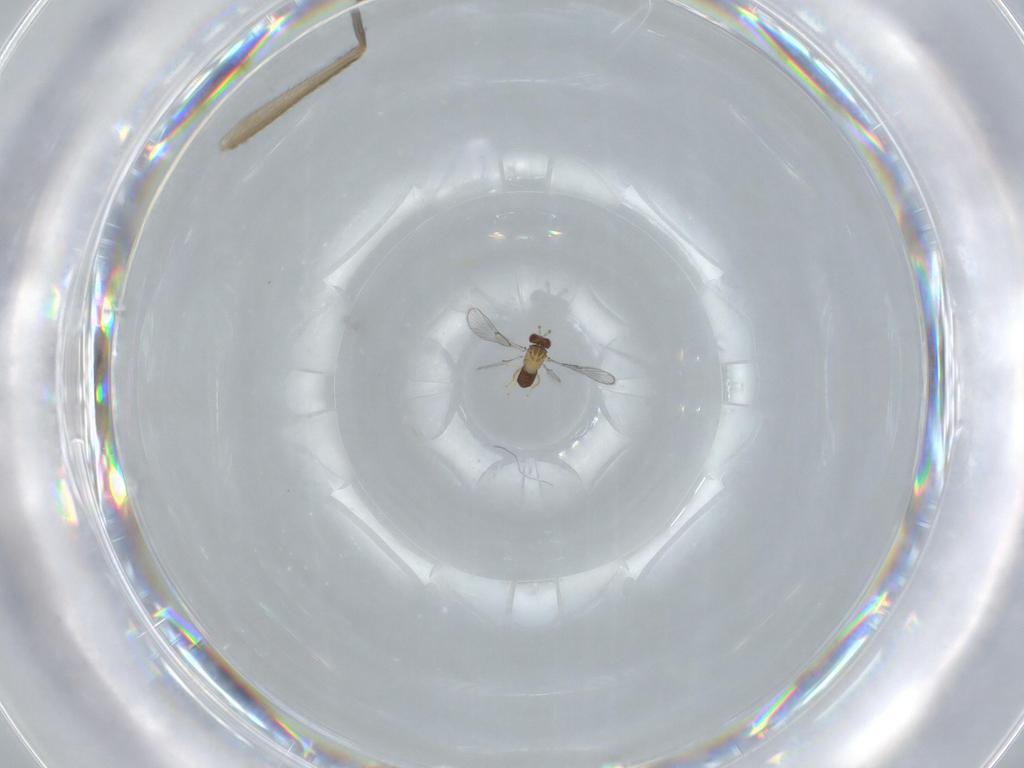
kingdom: Animalia
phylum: Arthropoda
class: Insecta
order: Hymenoptera
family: Trichogrammatidae
